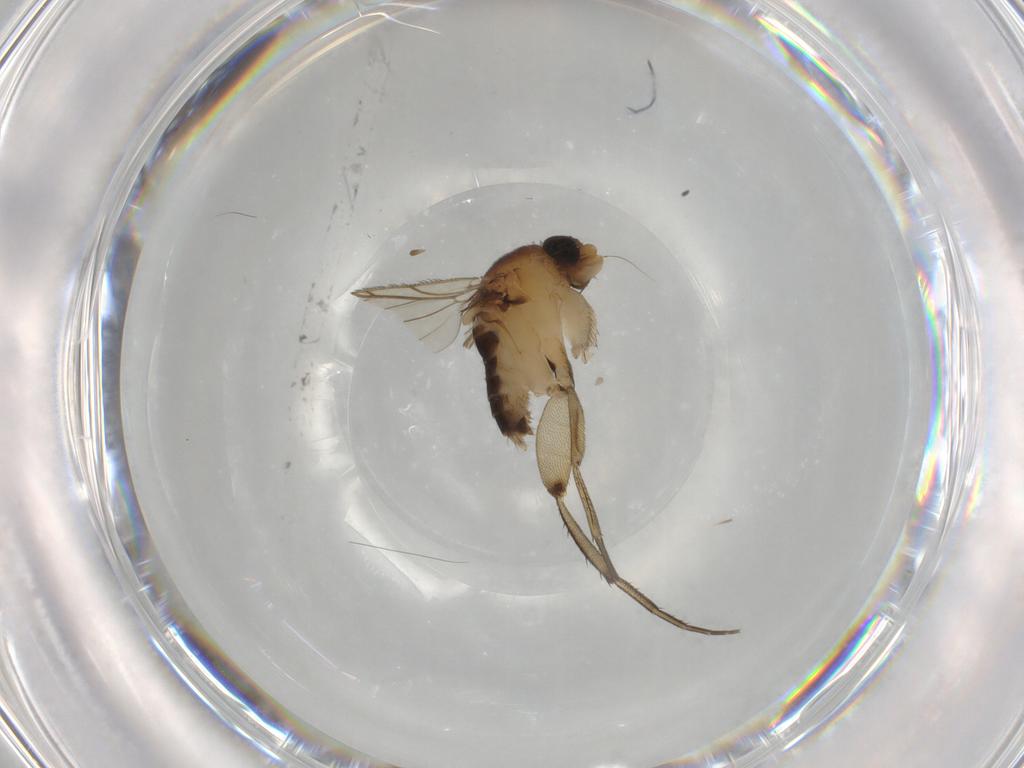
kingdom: Animalia
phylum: Arthropoda
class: Insecta
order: Diptera
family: Phoridae
